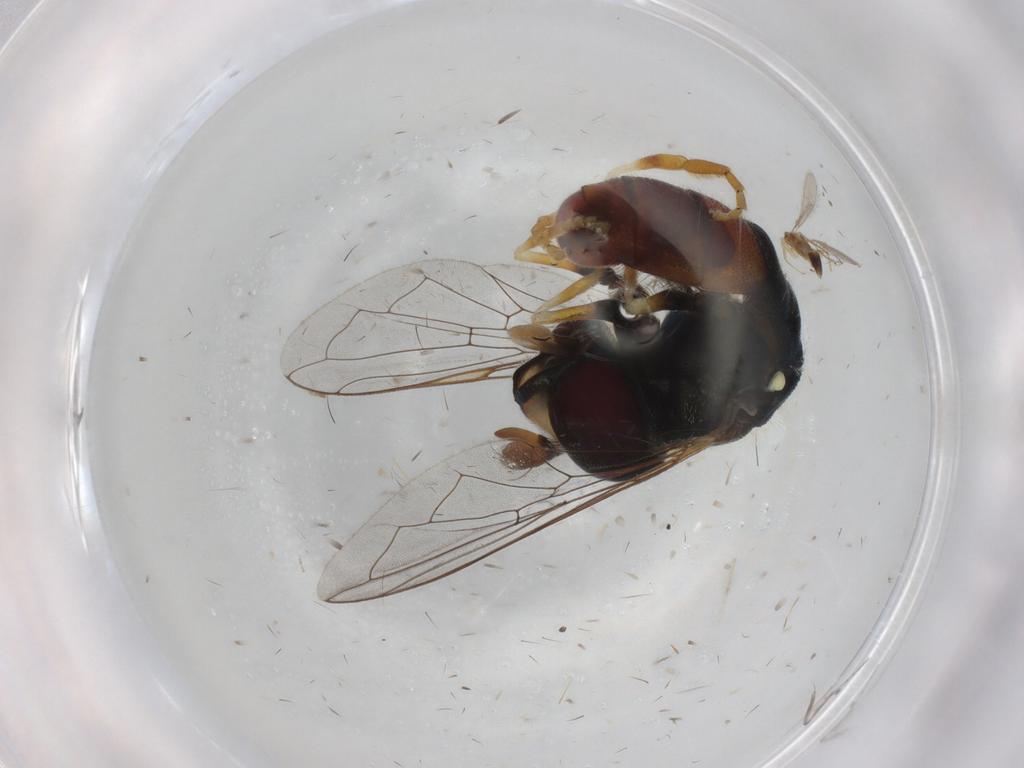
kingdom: Animalia
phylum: Arthropoda
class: Insecta
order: Diptera
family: Syrphidae
